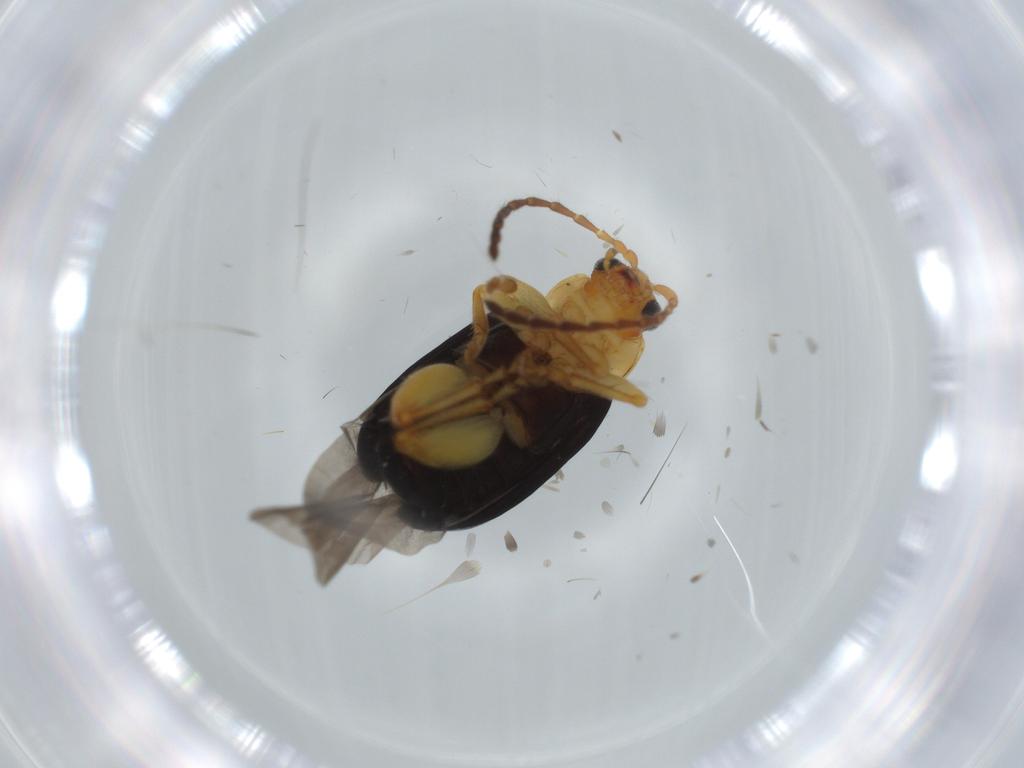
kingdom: Animalia
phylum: Arthropoda
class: Insecta
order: Coleoptera
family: Chrysomelidae
